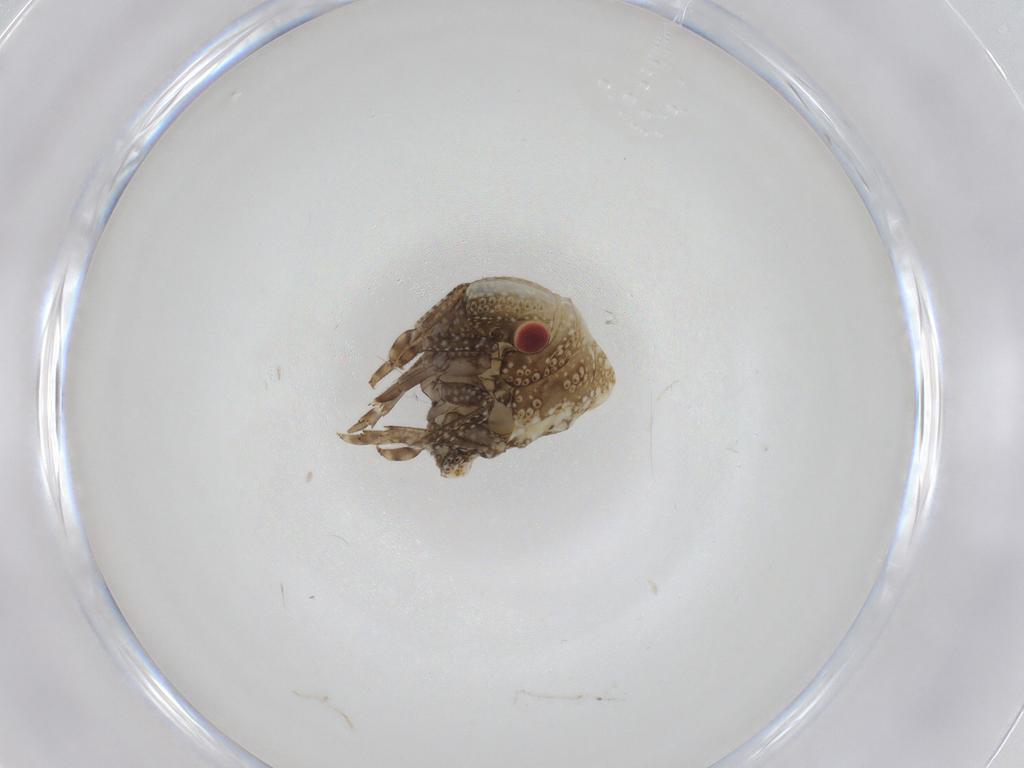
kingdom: Animalia
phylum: Arthropoda
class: Insecta
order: Hemiptera
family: Acanaloniidae
